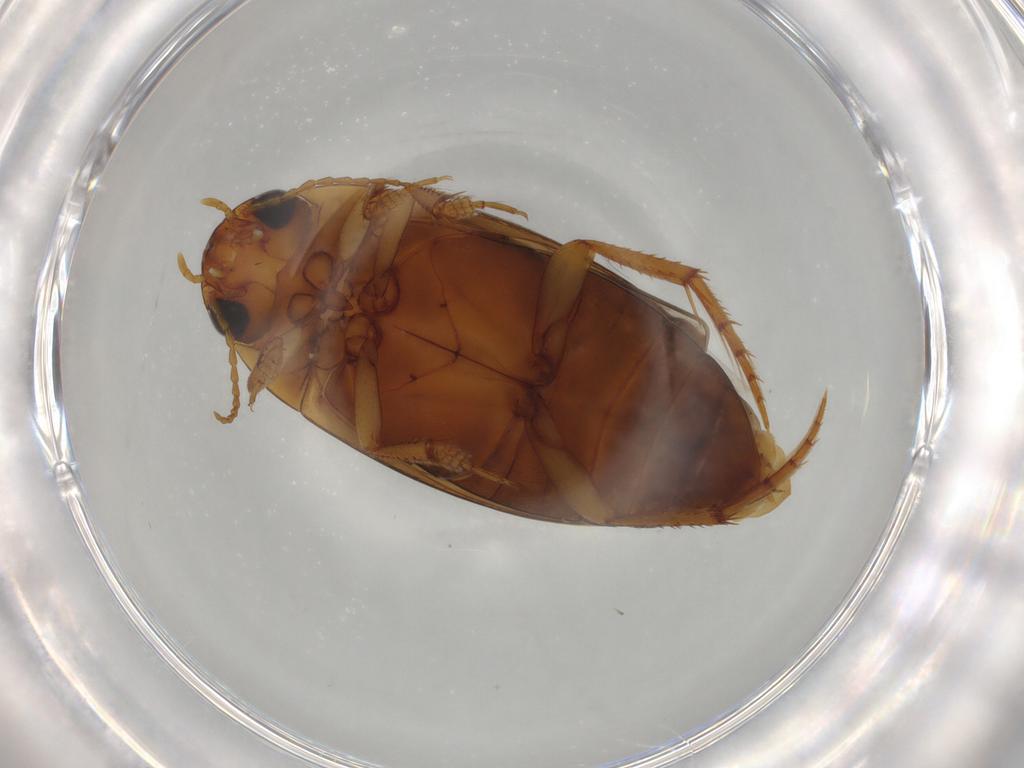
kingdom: Animalia
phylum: Arthropoda
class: Insecta
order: Coleoptera
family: Dytiscidae
